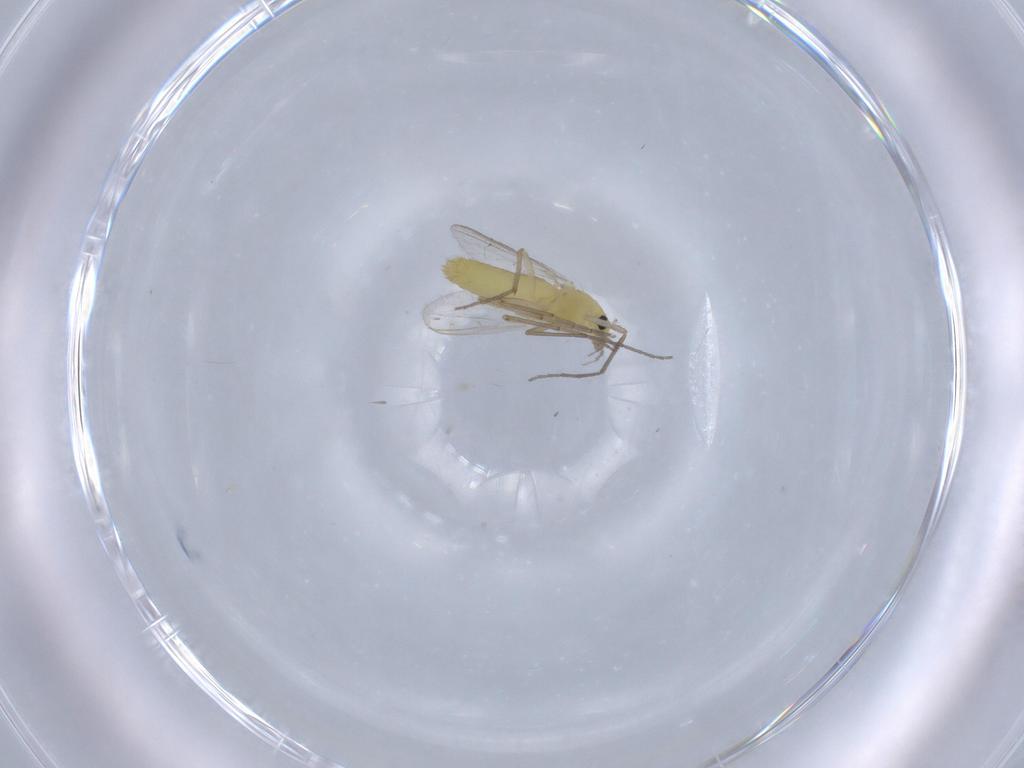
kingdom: Animalia
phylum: Arthropoda
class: Insecta
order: Diptera
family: Chironomidae
